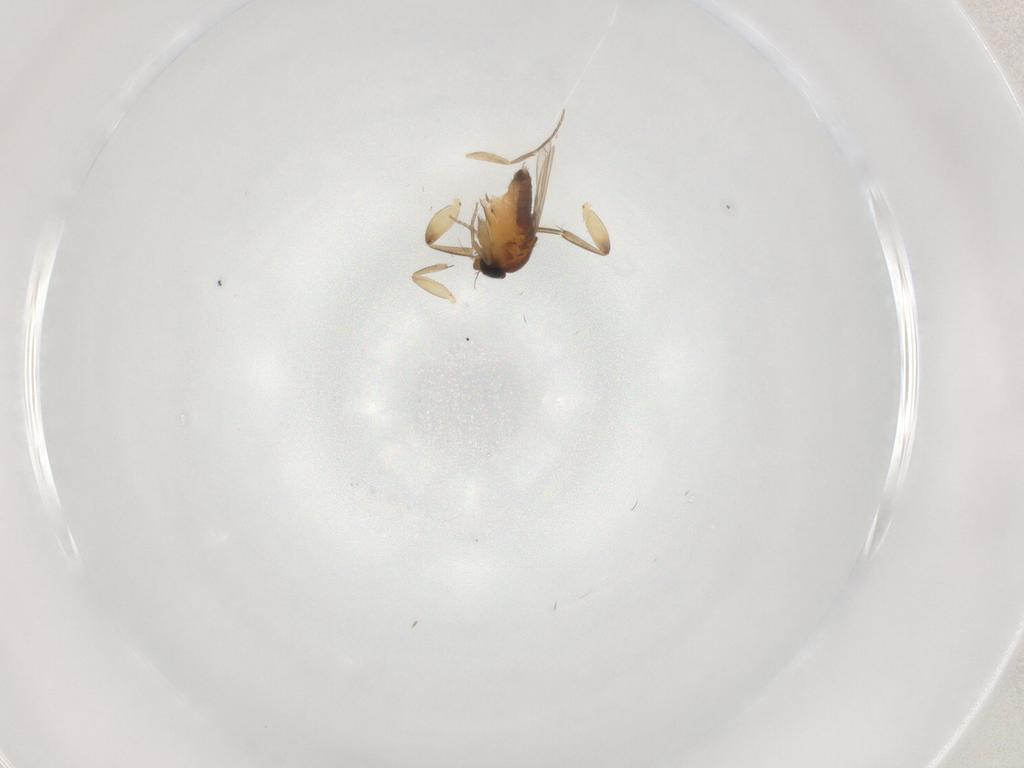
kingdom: Animalia
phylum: Arthropoda
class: Insecta
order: Diptera
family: Phoridae
